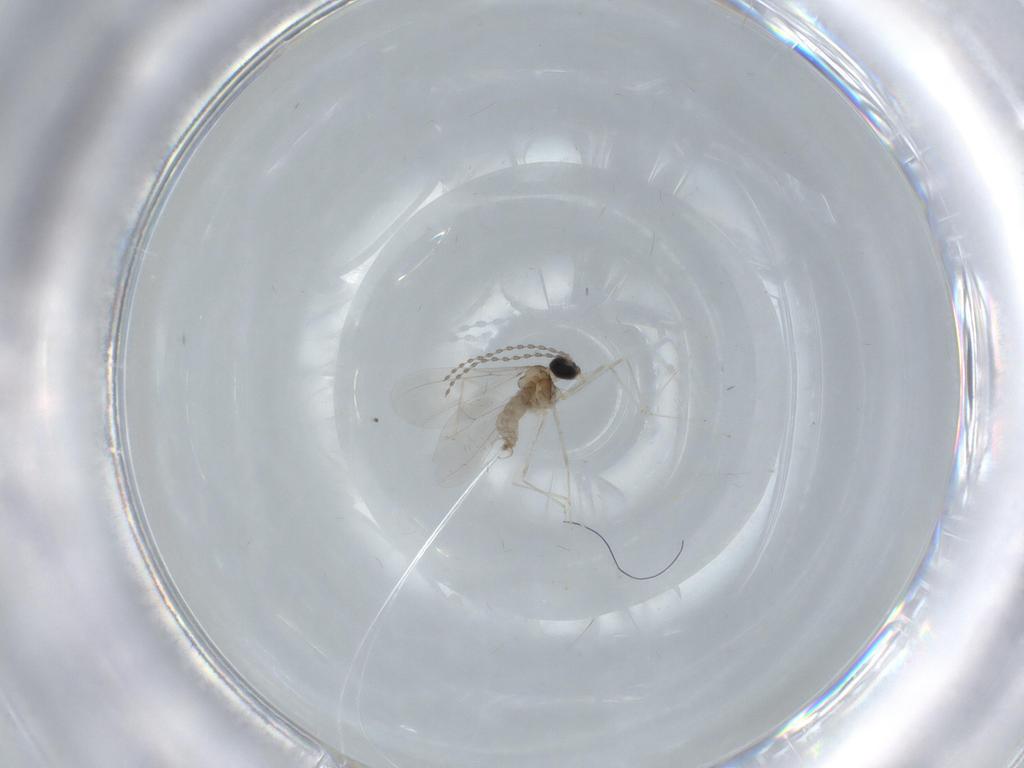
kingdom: Animalia
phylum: Arthropoda
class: Insecta
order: Diptera
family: Cecidomyiidae
